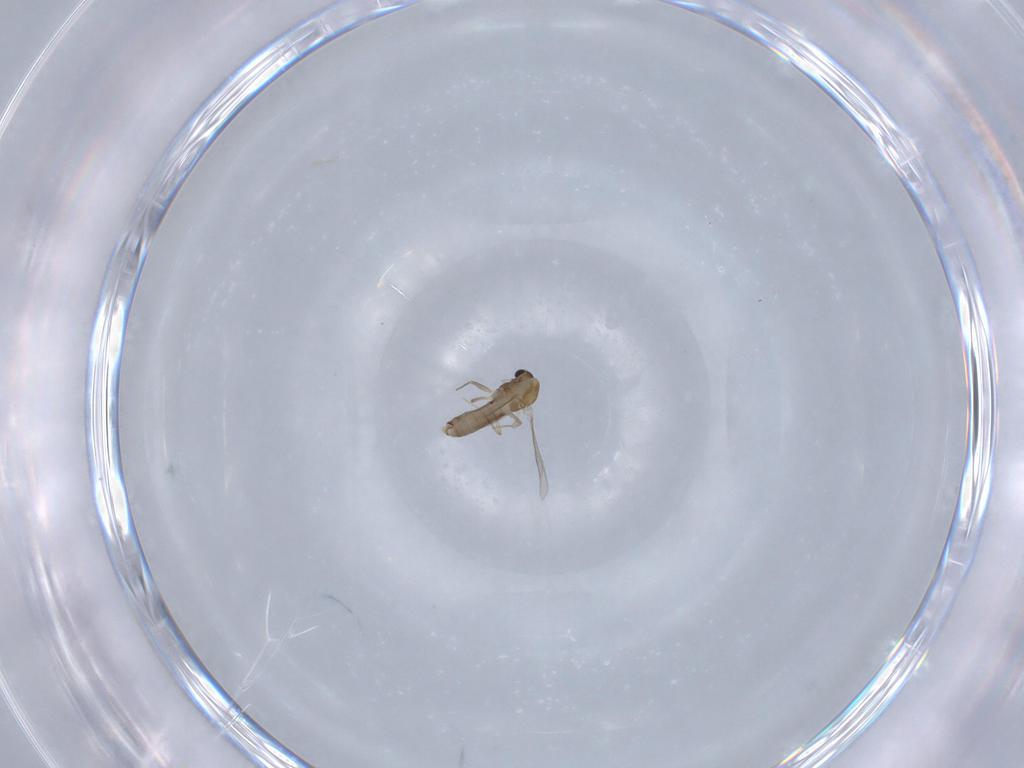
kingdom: Animalia
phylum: Arthropoda
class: Insecta
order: Diptera
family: Chironomidae
